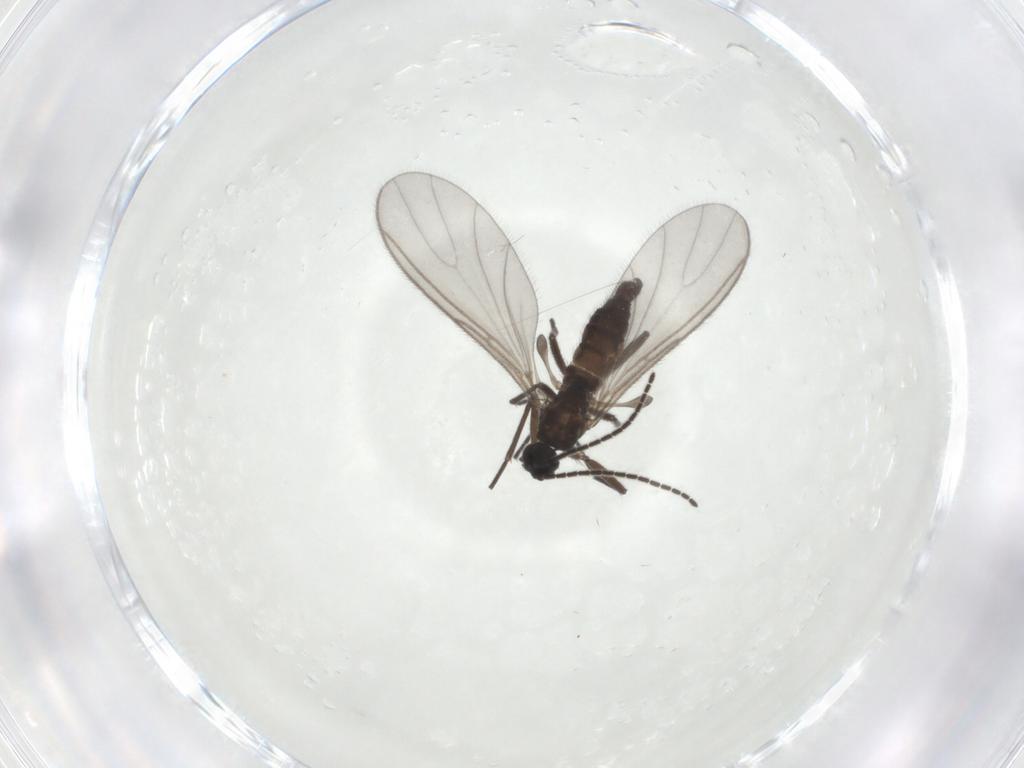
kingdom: Animalia
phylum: Arthropoda
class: Insecta
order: Diptera
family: Sciaridae
